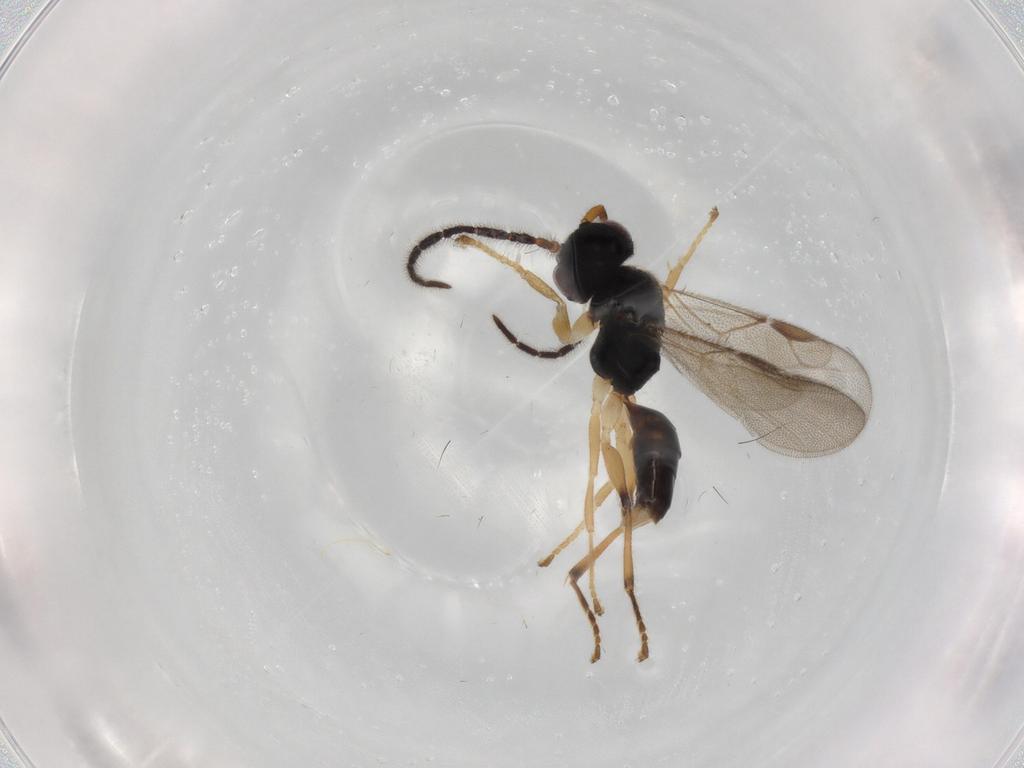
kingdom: Animalia
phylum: Arthropoda
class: Insecta
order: Hymenoptera
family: Dryinidae
